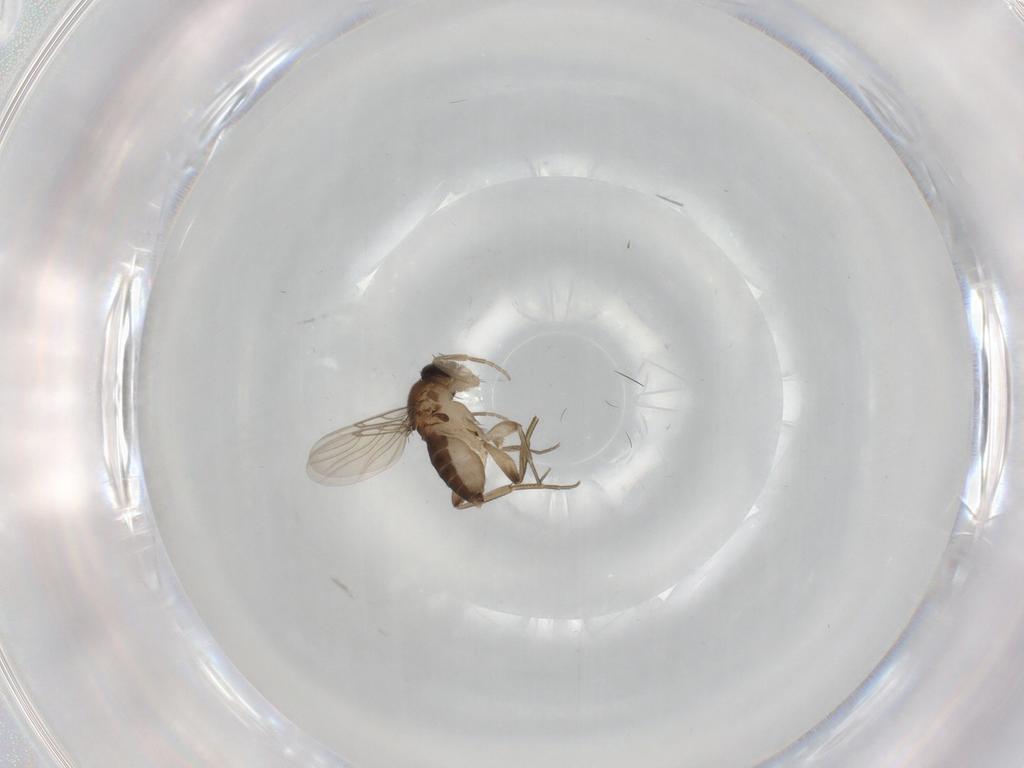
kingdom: Animalia
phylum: Arthropoda
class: Insecta
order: Diptera
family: Phoridae
